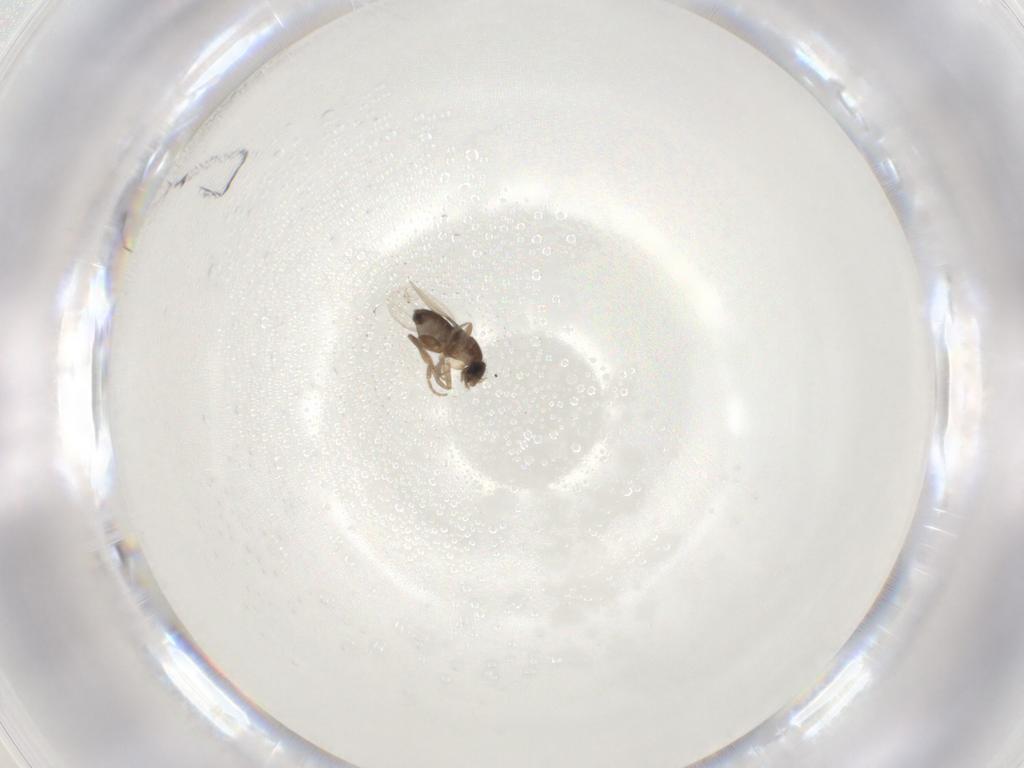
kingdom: Animalia
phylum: Arthropoda
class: Insecta
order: Diptera
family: Phoridae
